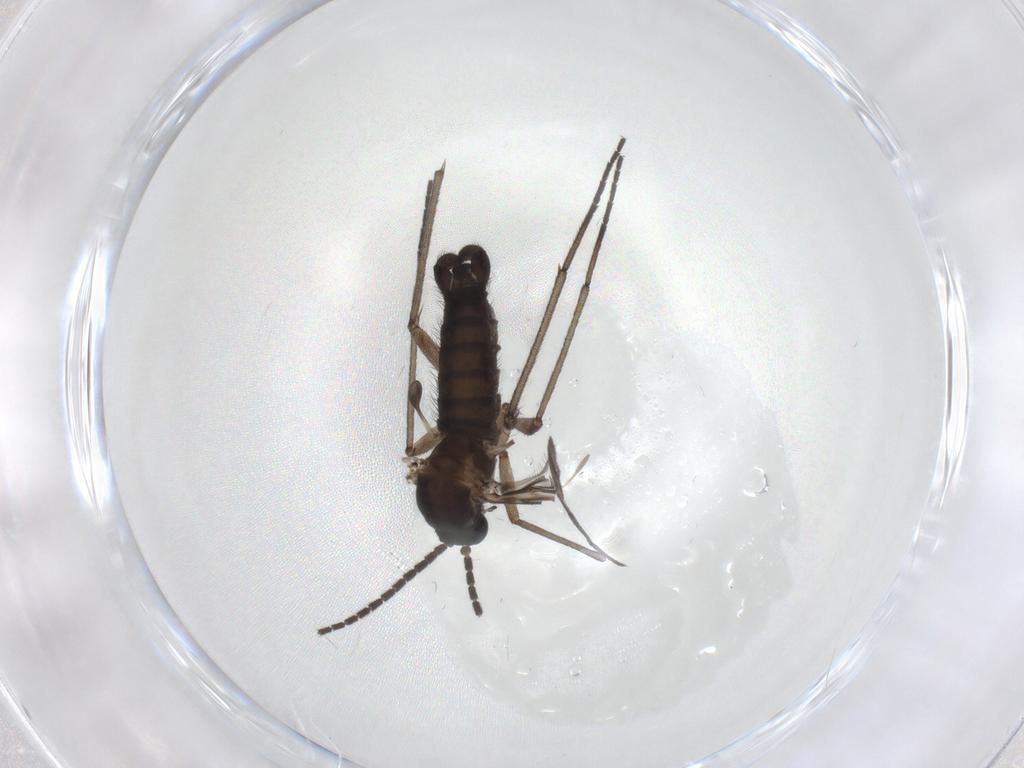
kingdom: Animalia
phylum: Arthropoda
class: Insecta
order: Diptera
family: Sciaridae
